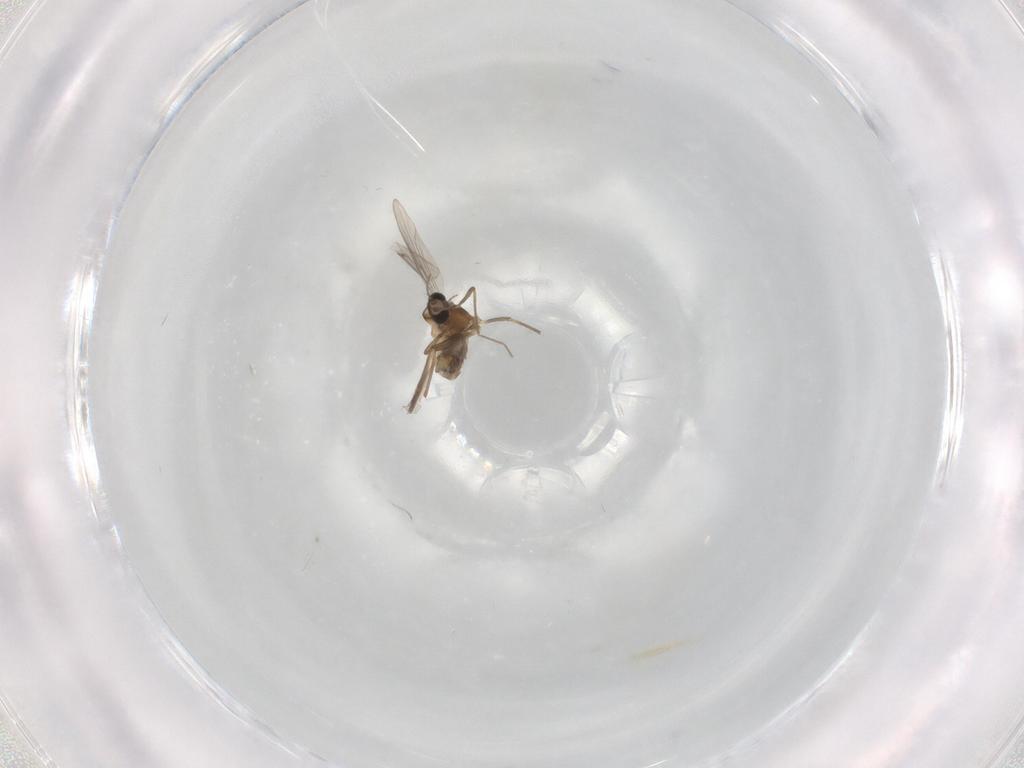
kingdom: Animalia
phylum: Arthropoda
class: Insecta
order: Diptera
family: Chironomidae
